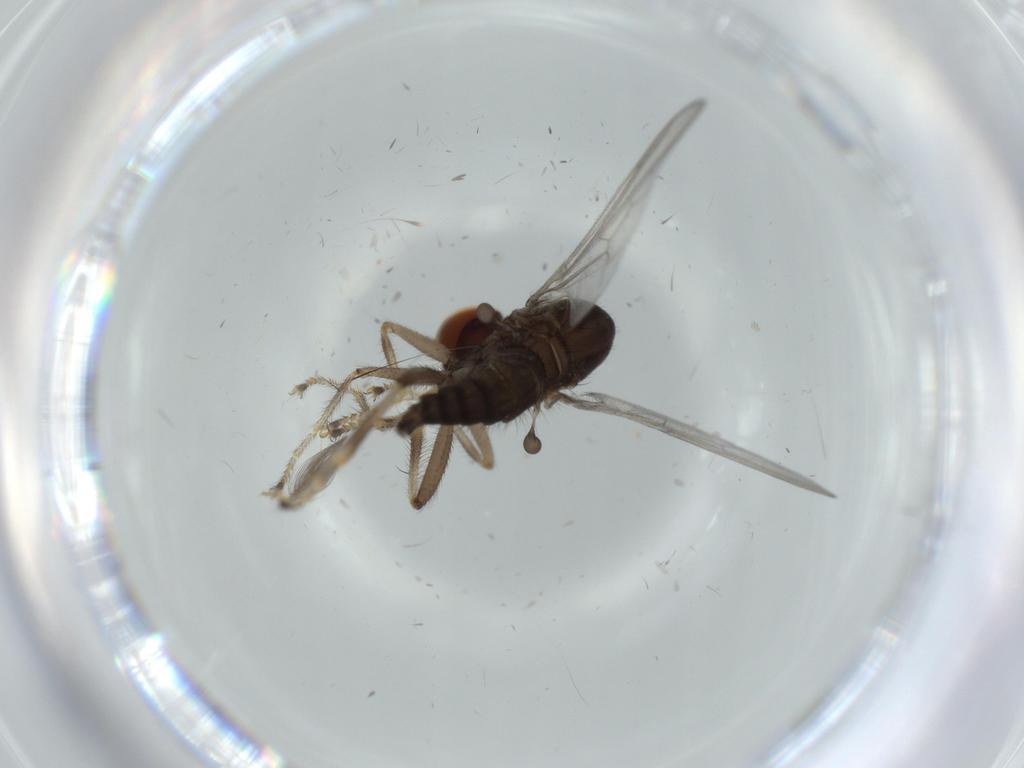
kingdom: Animalia
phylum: Arthropoda
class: Insecta
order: Diptera
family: Hybotidae
